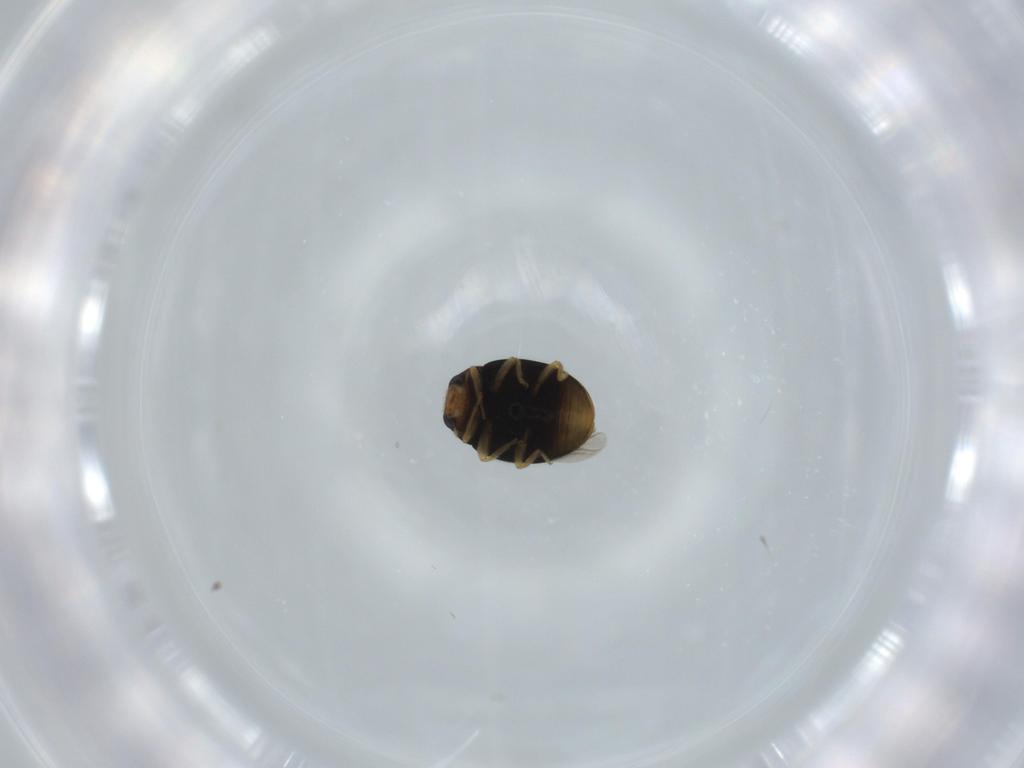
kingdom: Animalia
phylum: Arthropoda
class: Insecta
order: Coleoptera
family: Coccinellidae
